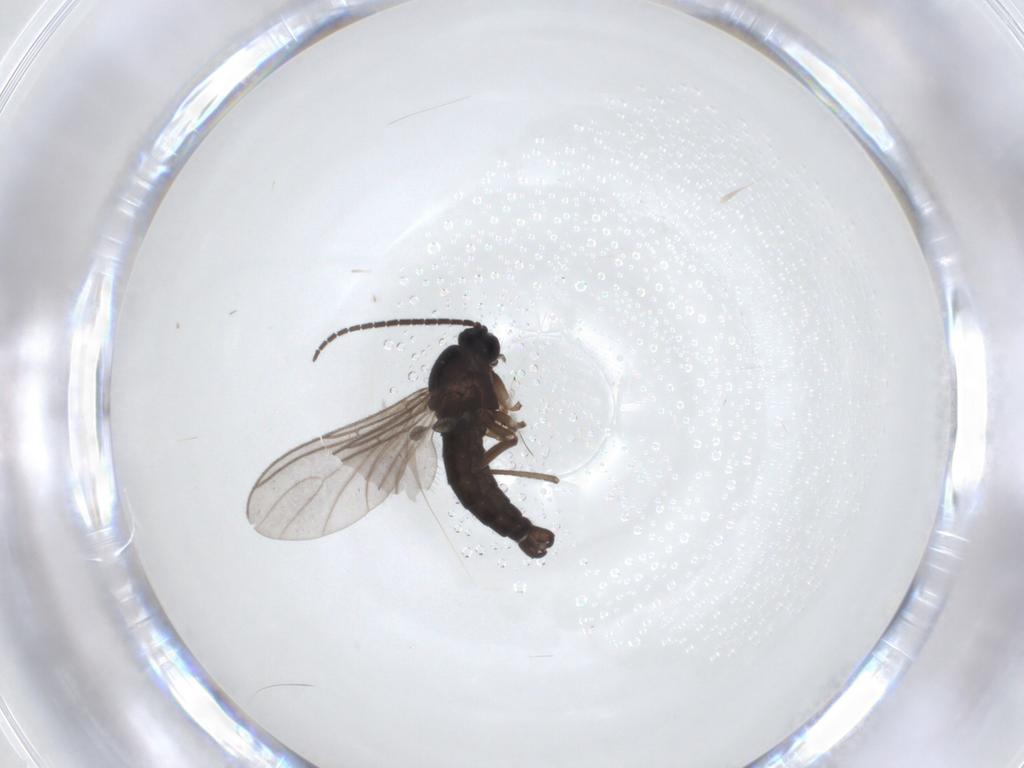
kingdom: Animalia
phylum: Arthropoda
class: Insecta
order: Diptera
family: Sciaridae
